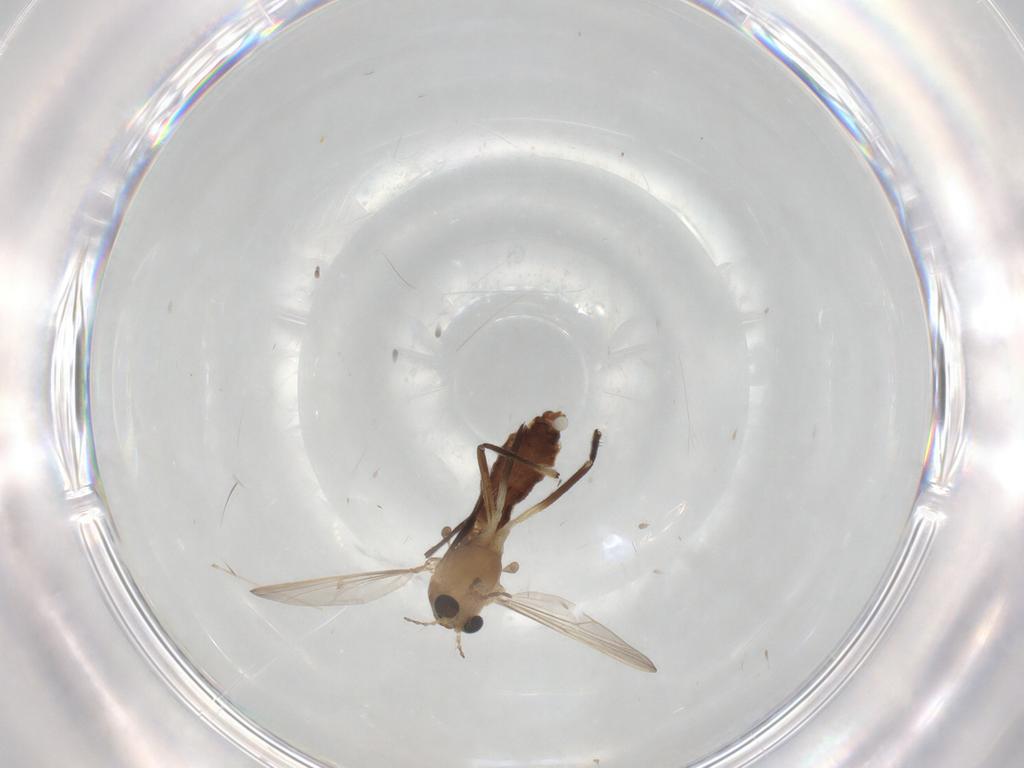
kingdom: Animalia
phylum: Arthropoda
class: Insecta
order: Diptera
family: Chironomidae
